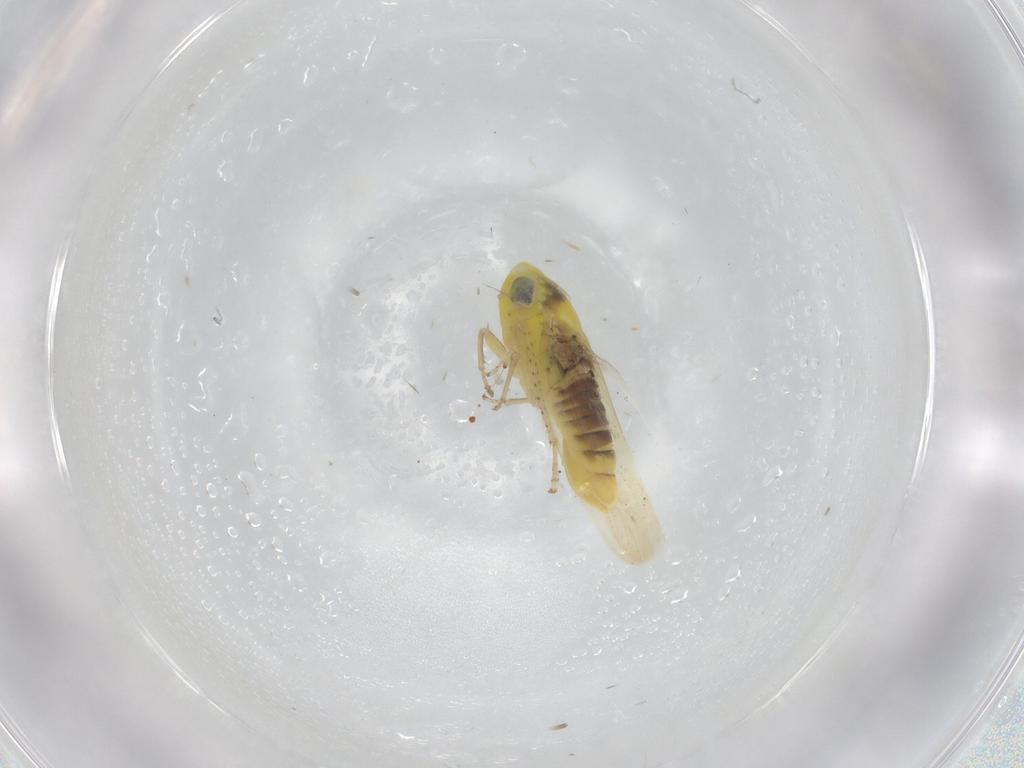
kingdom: Animalia
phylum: Arthropoda
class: Insecta
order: Hemiptera
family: Cicadellidae
